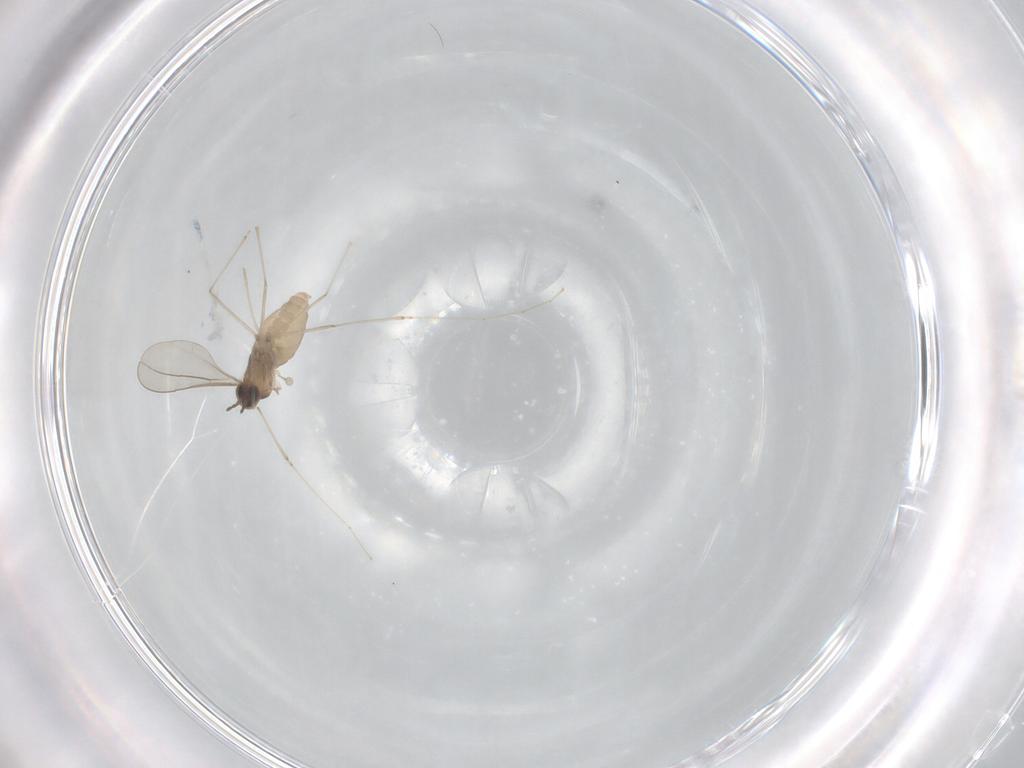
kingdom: Animalia
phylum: Arthropoda
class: Insecta
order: Diptera
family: Cecidomyiidae
